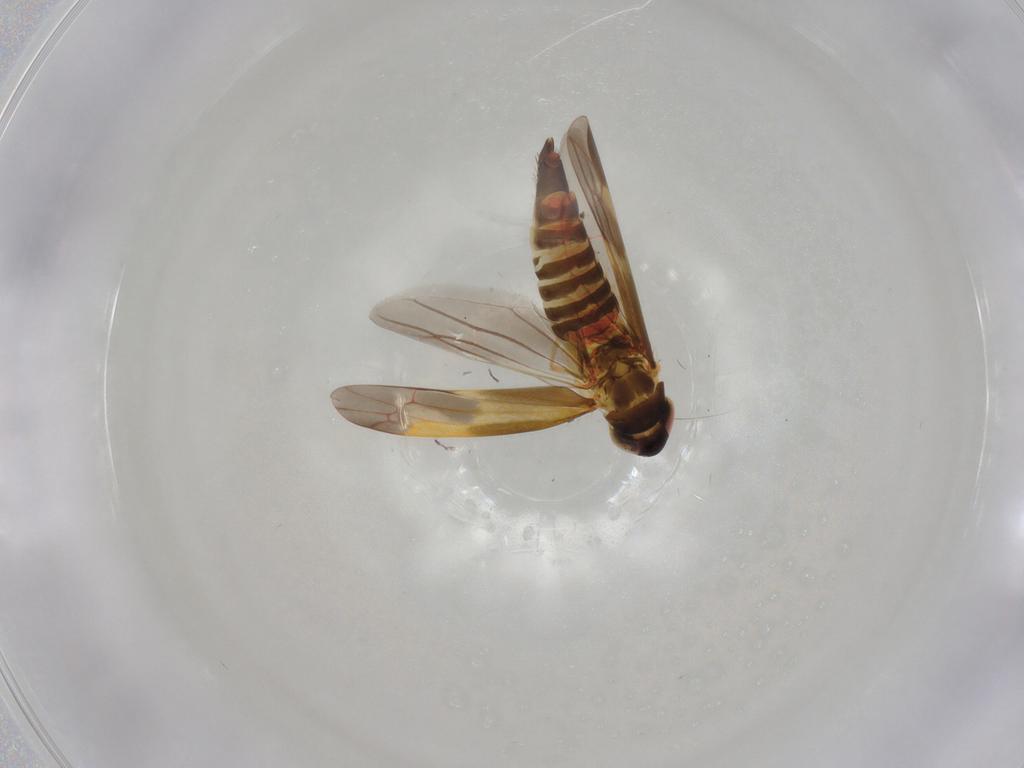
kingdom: Animalia
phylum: Arthropoda
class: Insecta
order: Hemiptera
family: Cicadellidae
